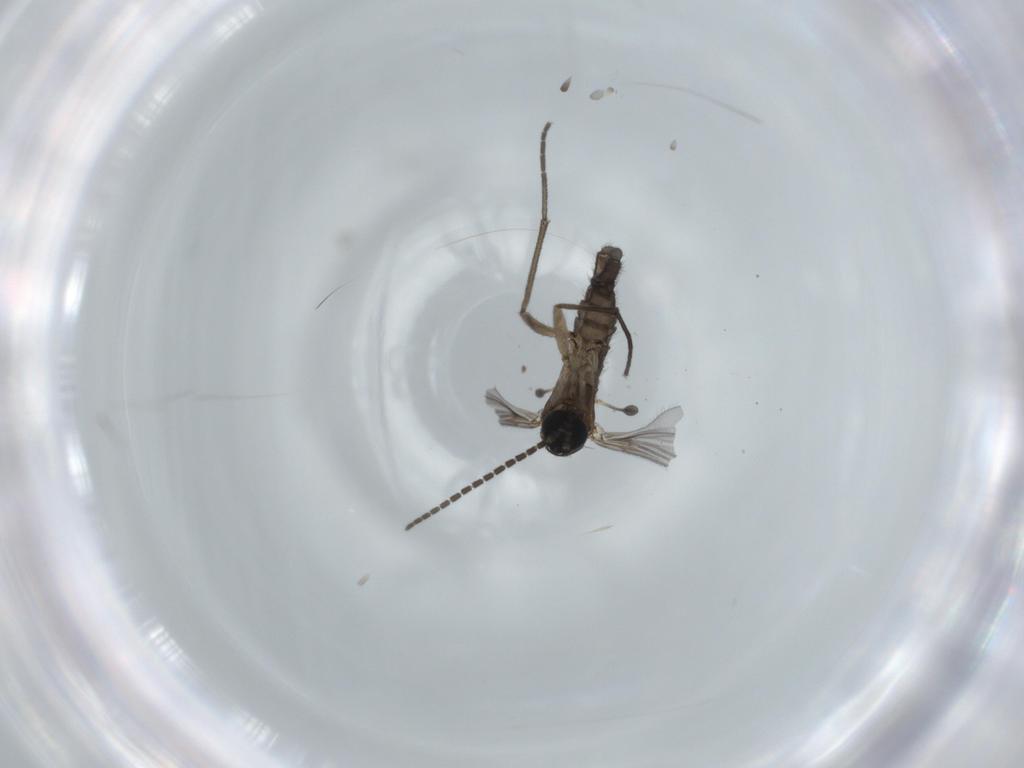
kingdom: Animalia
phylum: Arthropoda
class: Insecta
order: Diptera
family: Sciaridae
